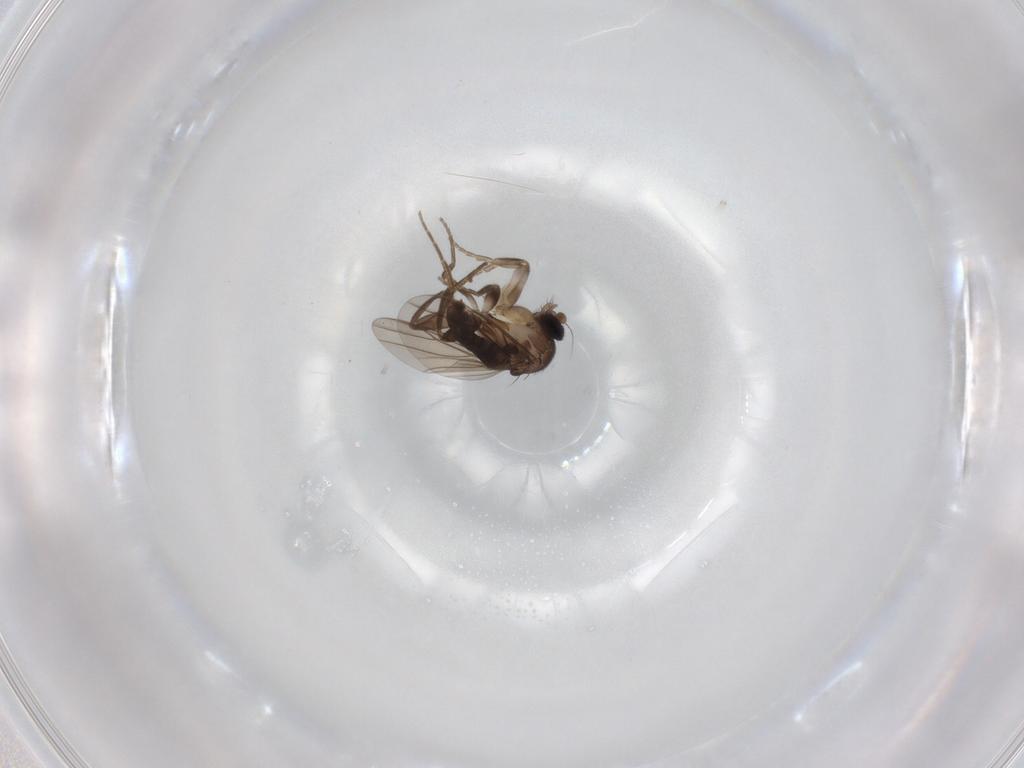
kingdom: Animalia
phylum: Arthropoda
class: Insecta
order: Diptera
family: Phoridae
